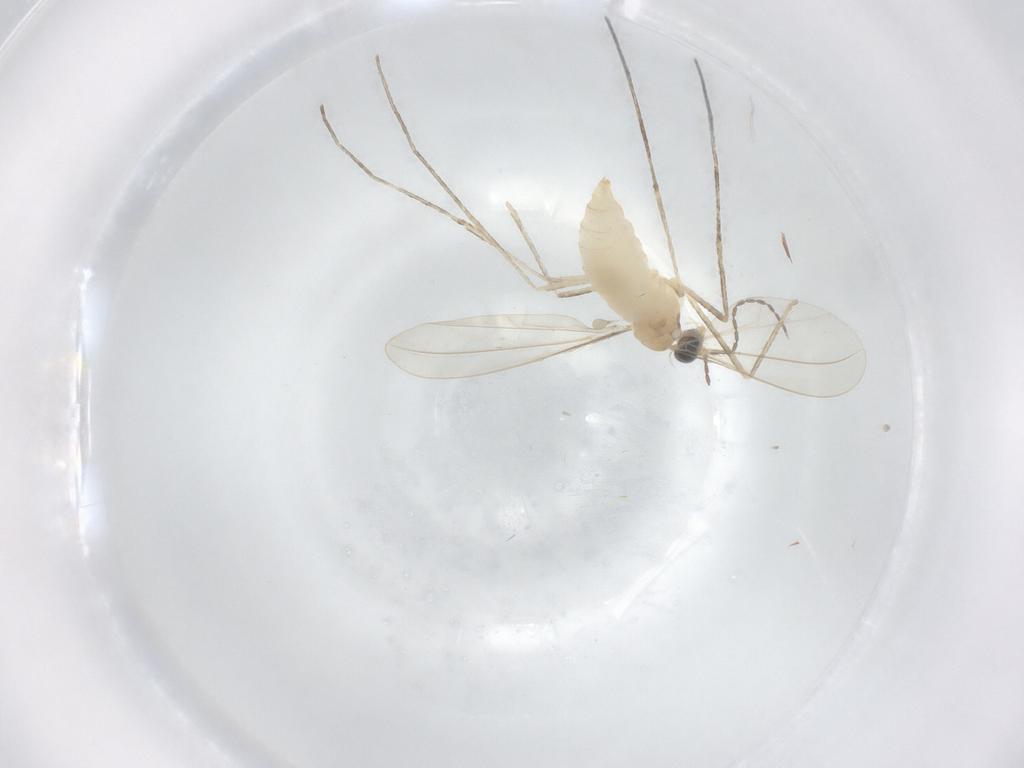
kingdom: Animalia
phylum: Arthropoda
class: Insecta
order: Diptera
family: Cecidomyiidae
